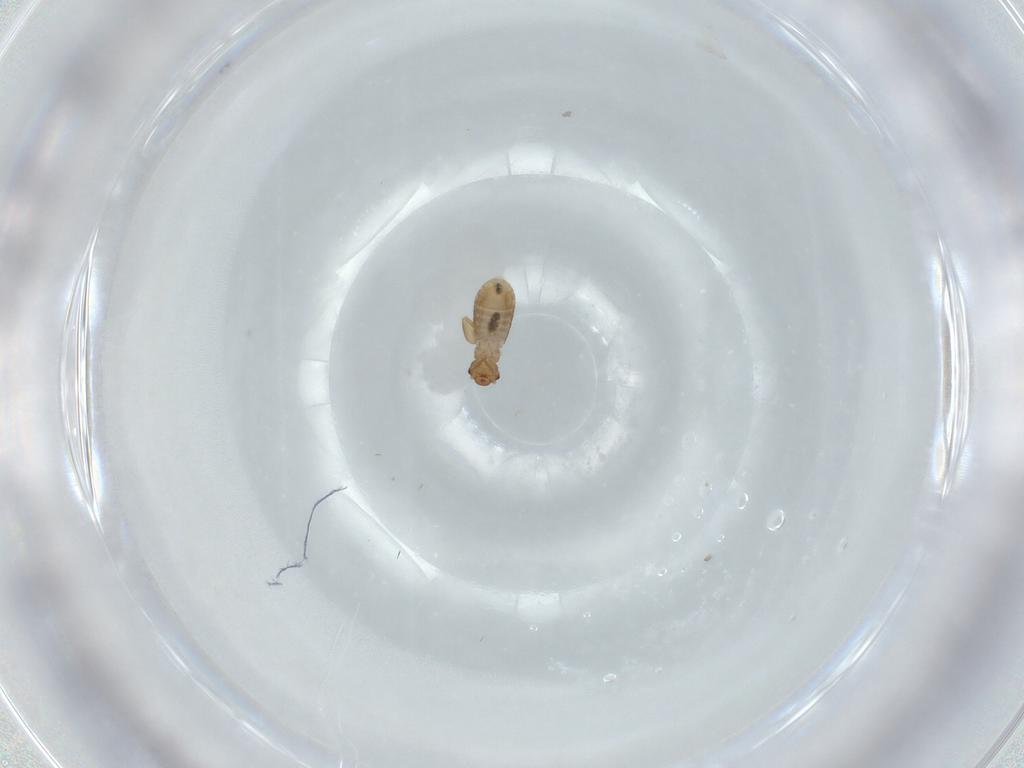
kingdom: Animalia
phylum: Arthropoda
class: Insecta
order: Psocodea
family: Liposcelididae
